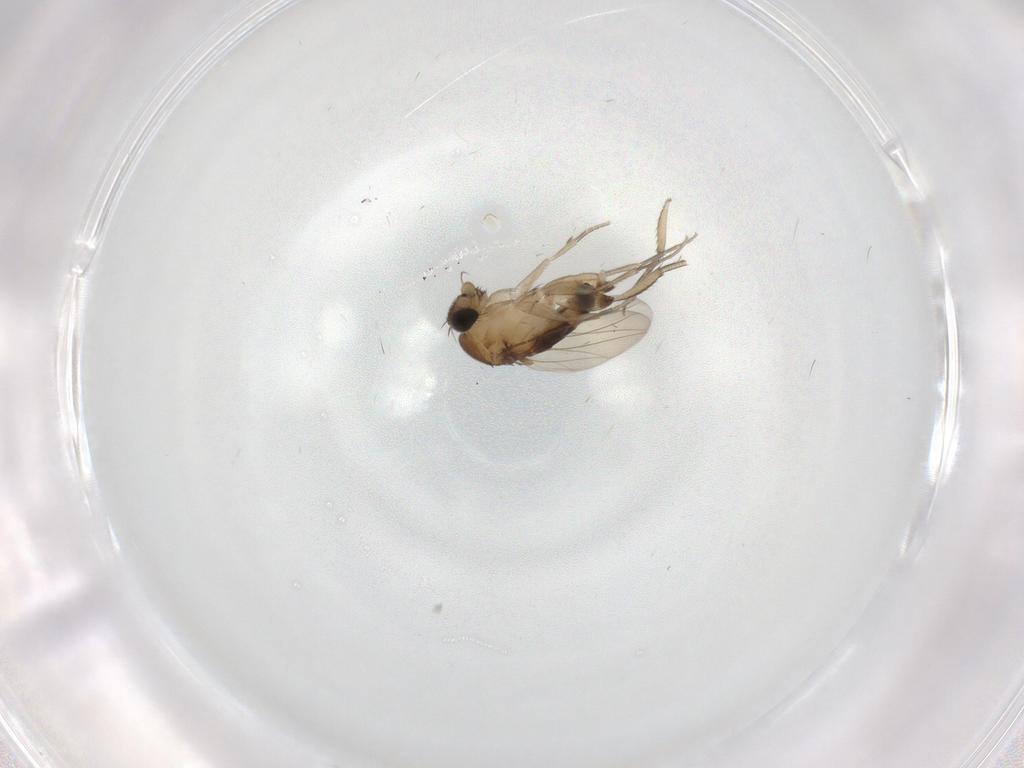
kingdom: Animalia
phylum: Arthropoda
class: Insecta
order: Diptera
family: Phoridae
